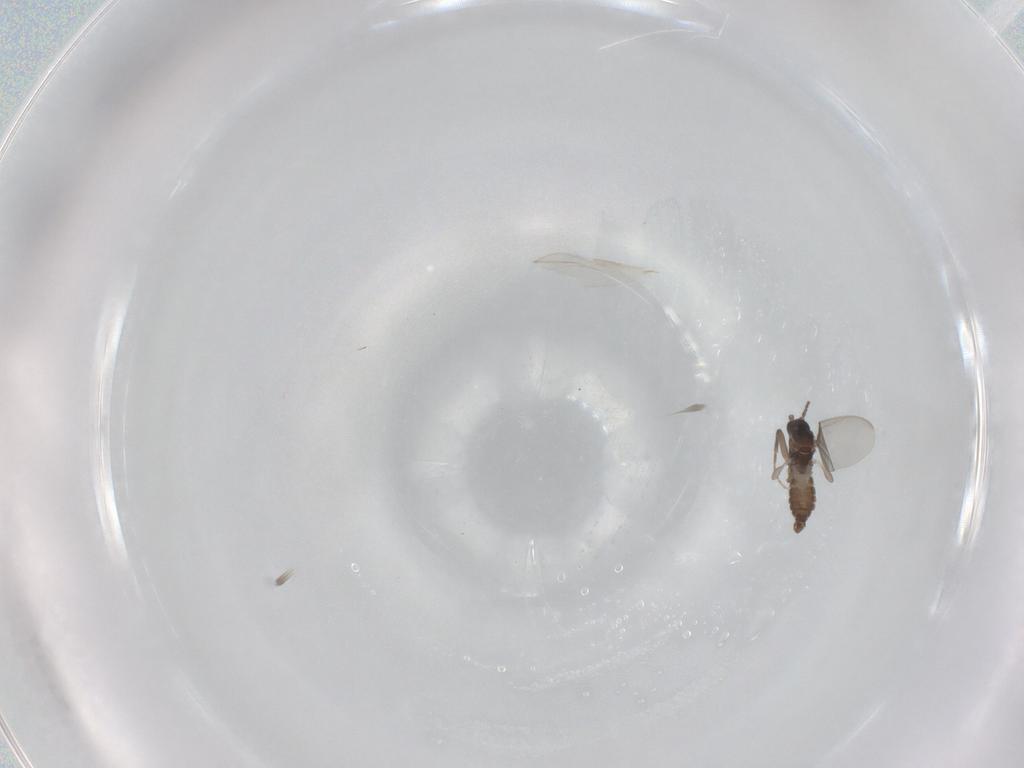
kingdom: Animalia
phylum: Arthropoda
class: Insecta
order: Diptera
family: Sciaridae
